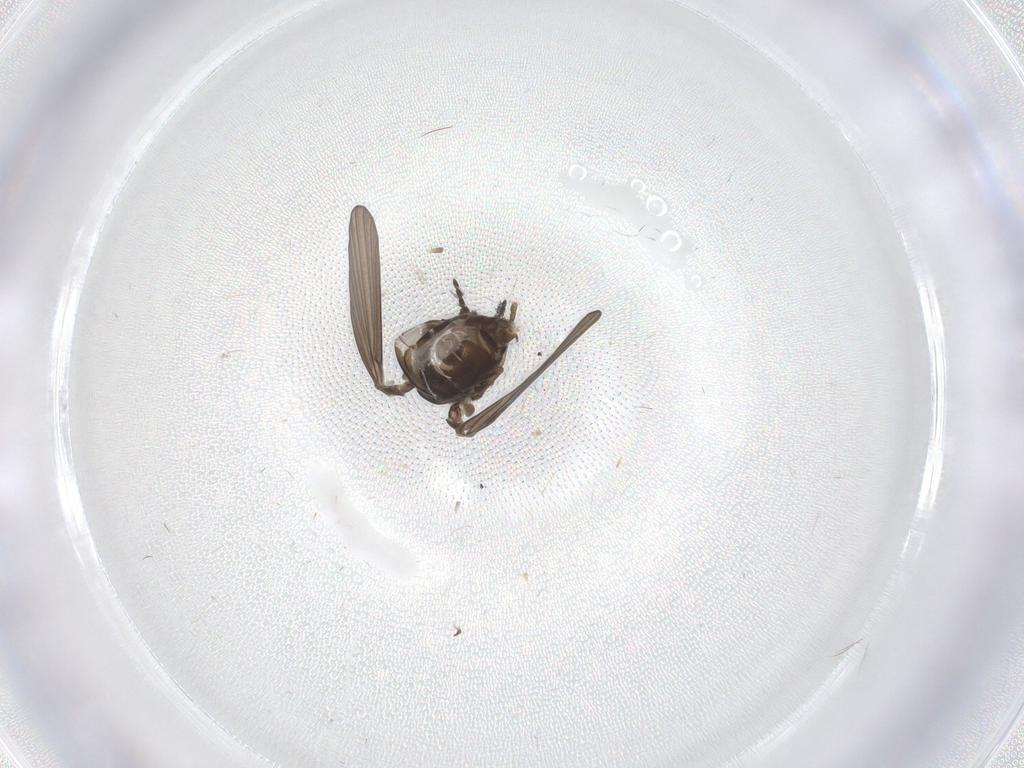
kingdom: Animalia
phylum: Arthropoda
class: Insecta
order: Diptera
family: Psychodidae
